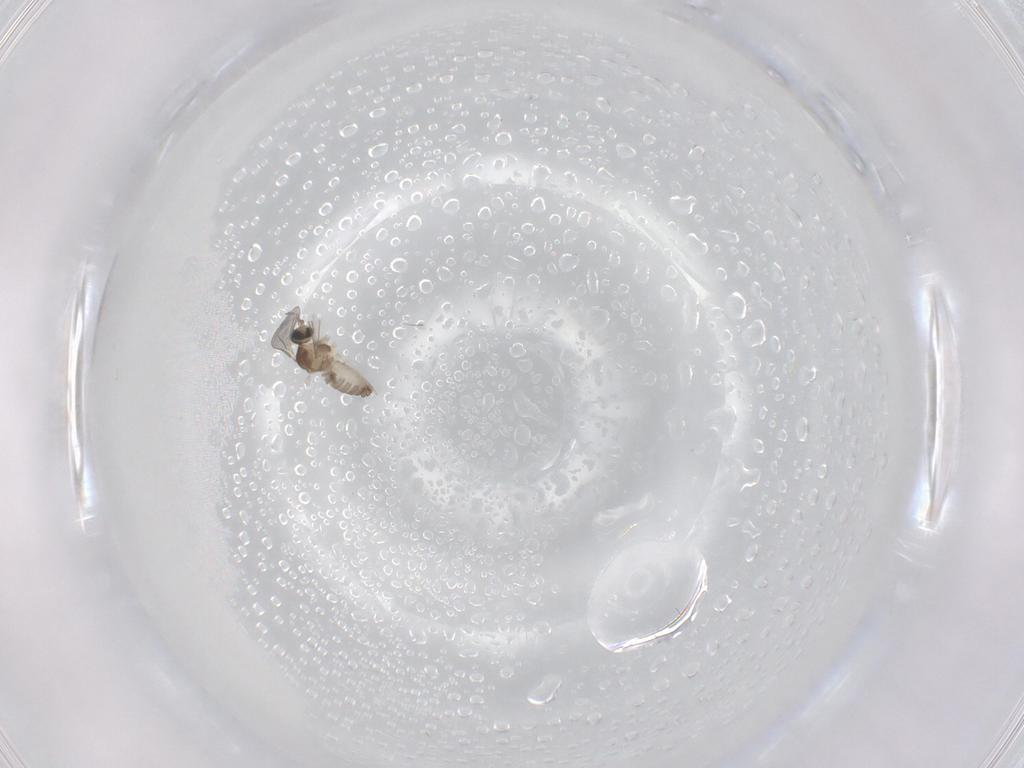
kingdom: Animalia
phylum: Arthropoda
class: Insecta
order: Diptera
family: Cecidomyiidae
